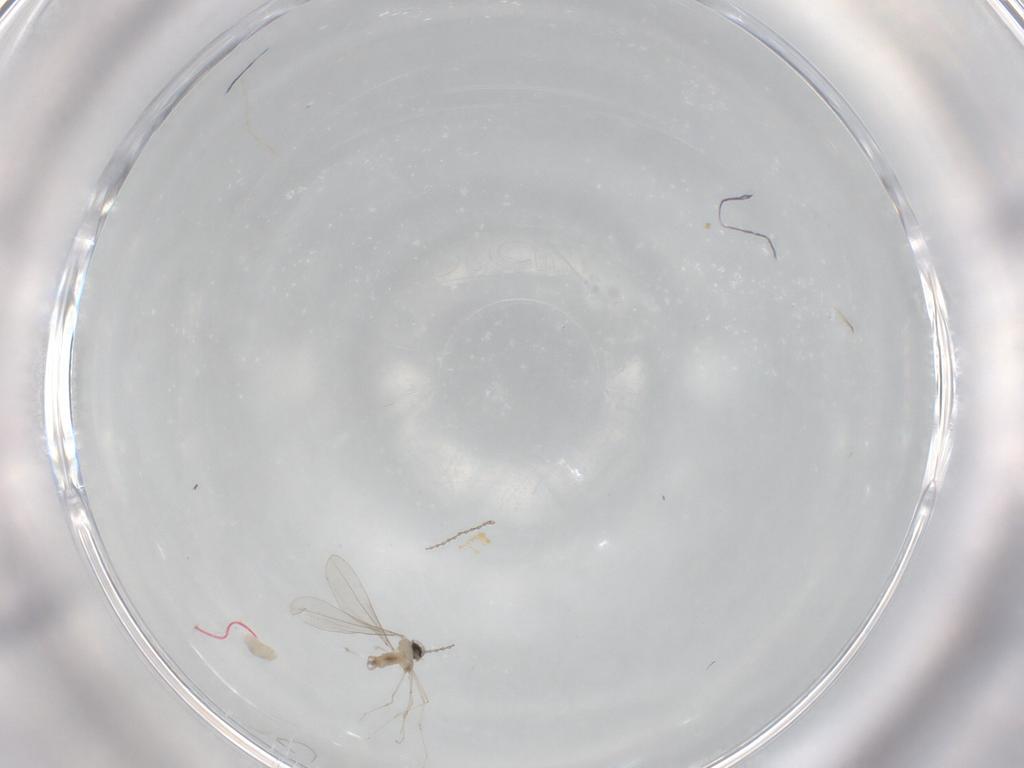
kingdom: Animalia
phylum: Arthropoda
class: Insecta
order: Diptera
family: Cecidomyiidae
